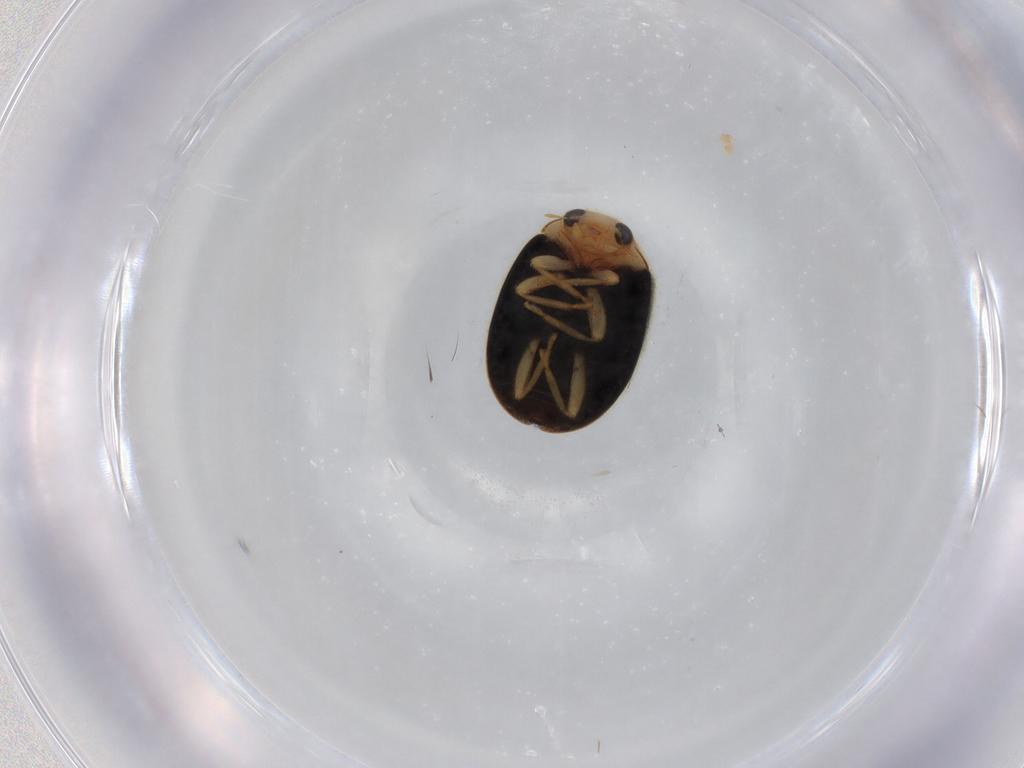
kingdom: Animalia
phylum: Arthropoda
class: Insecta
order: Coleoptera
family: Coccinellidae
